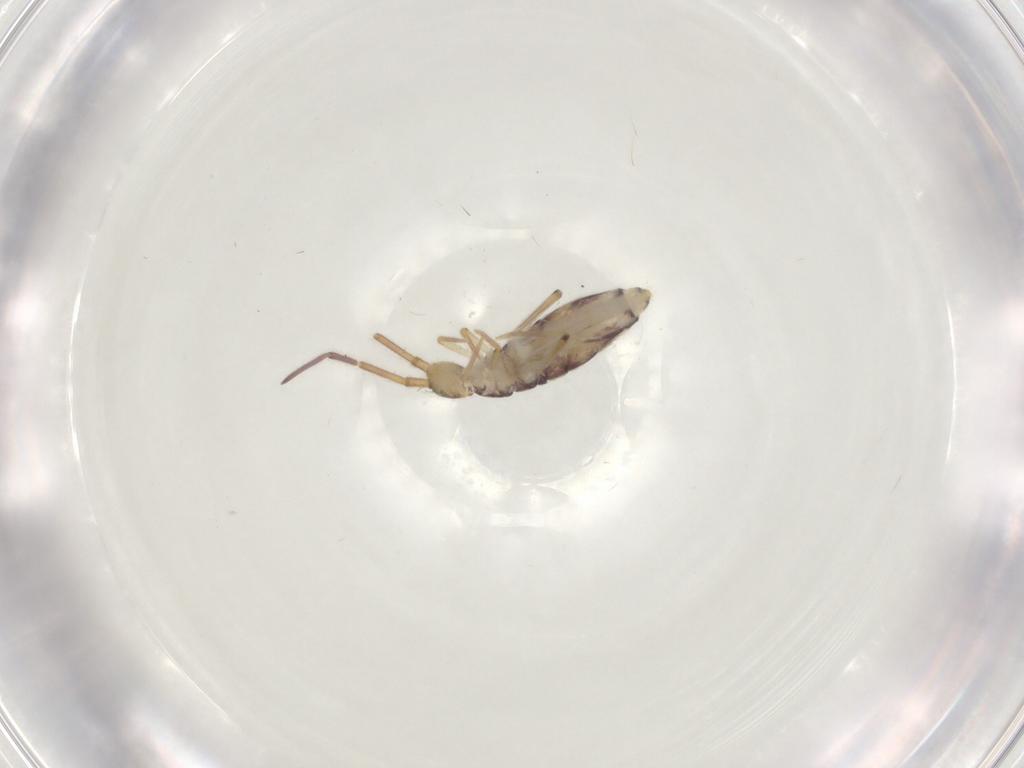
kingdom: Animalia
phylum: Arthropoda
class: Collembola
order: Entomobryomorpha
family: Entomobryidae
